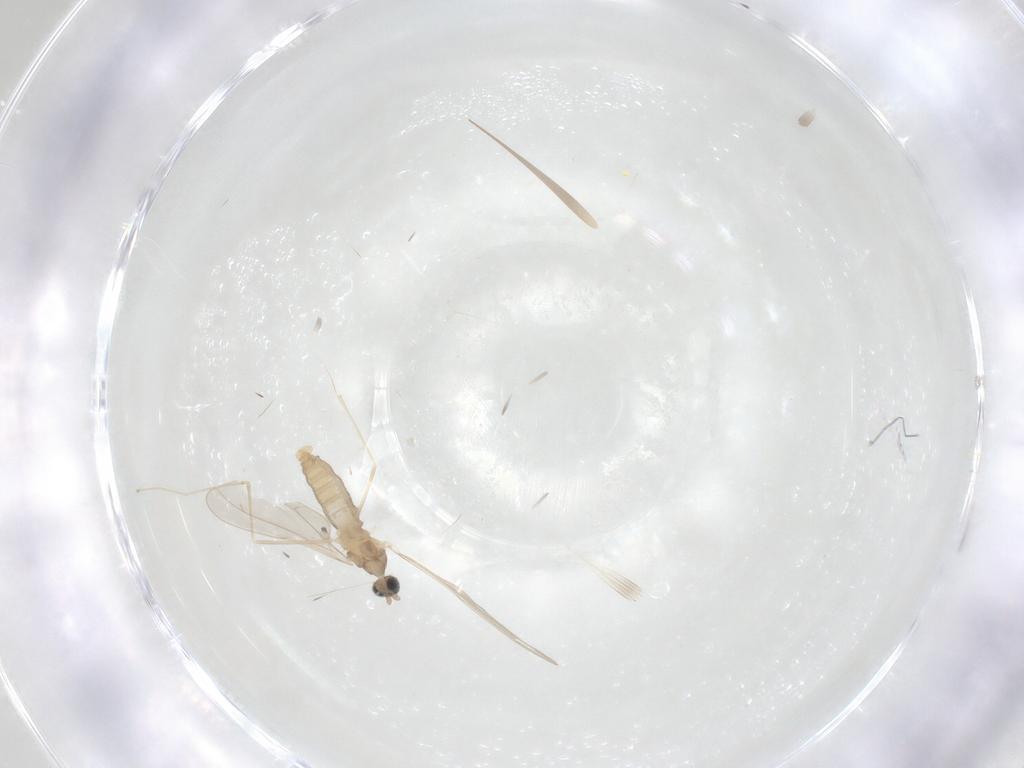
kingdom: Animalia
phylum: Arthropoda
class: Insecta
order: Diptera
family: Cecidomyiidae
